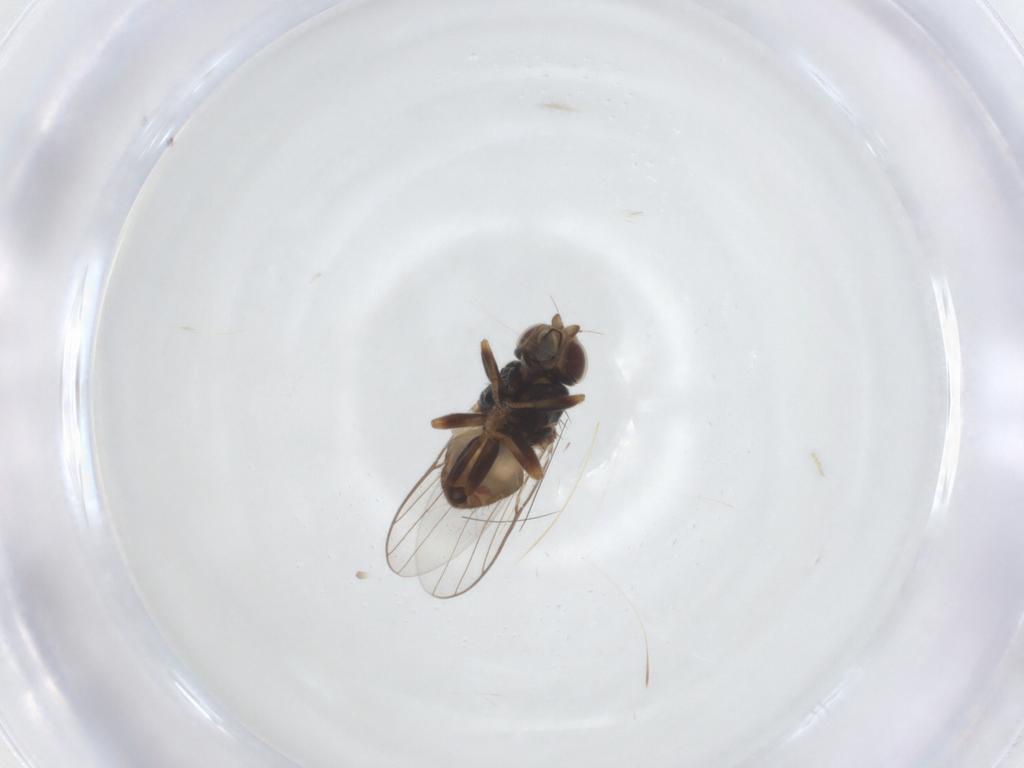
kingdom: Animalia
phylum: Arthropoda
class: Insecta
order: Diptera
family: Chloropidae
